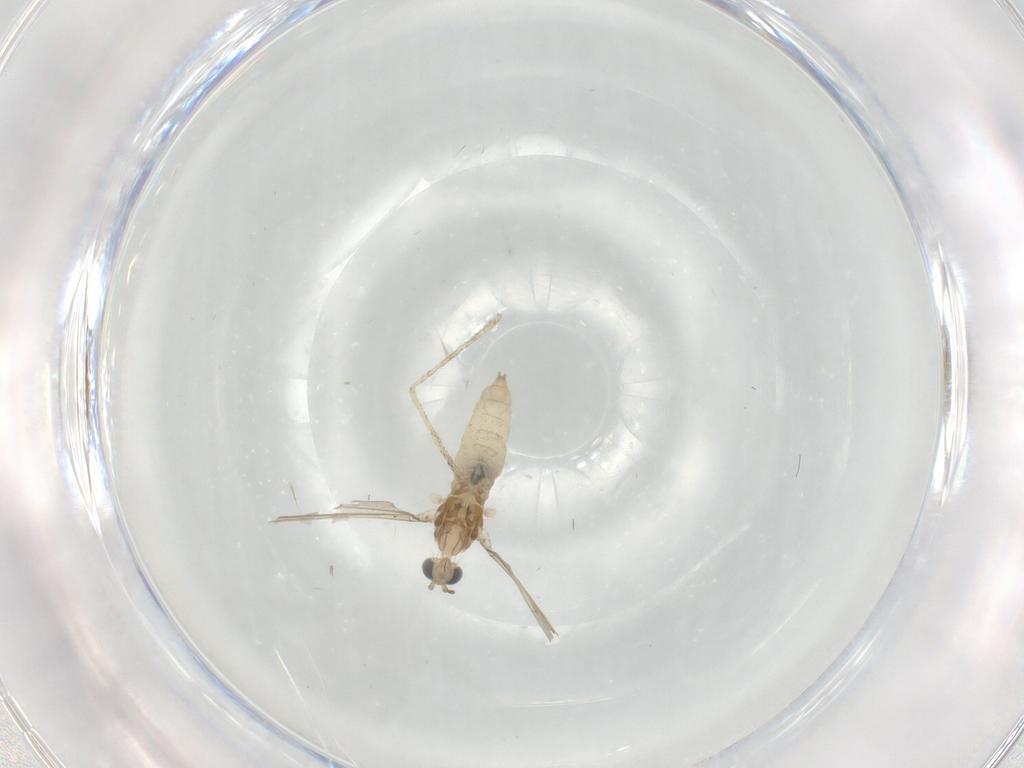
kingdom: Animalia
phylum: Arthropoda
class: Insecta
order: Diptera
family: Cecidomyiidae
